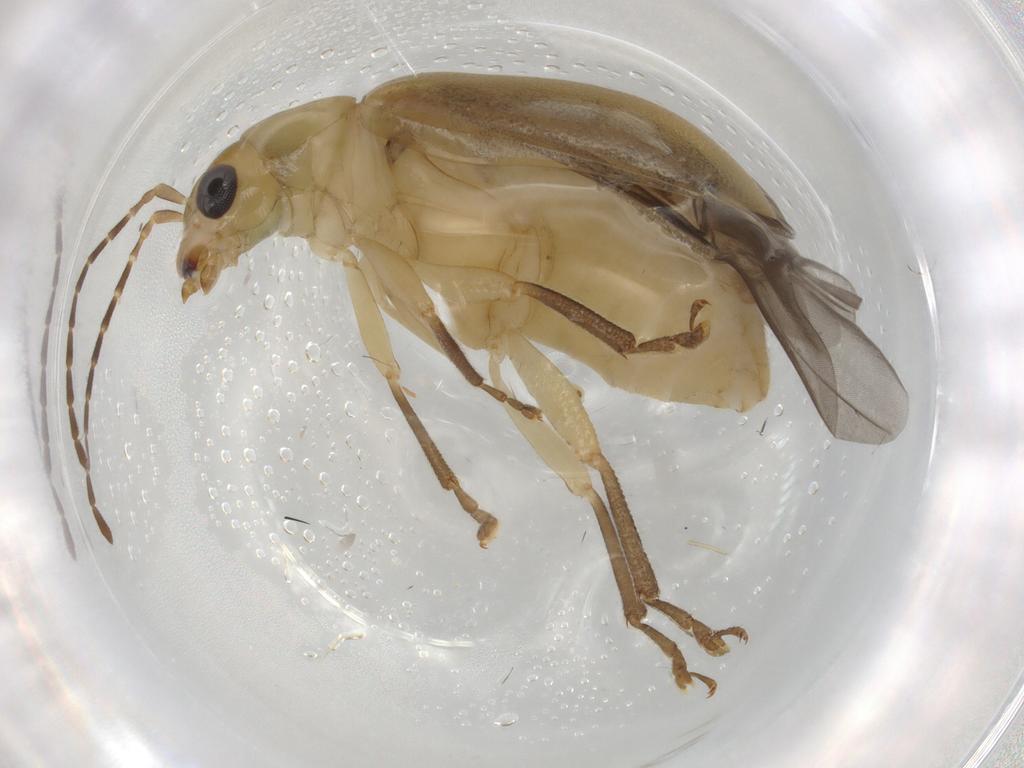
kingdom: Animalia
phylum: Arthropoda
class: Insecta
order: Coleoptera
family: Chrysomelidae
